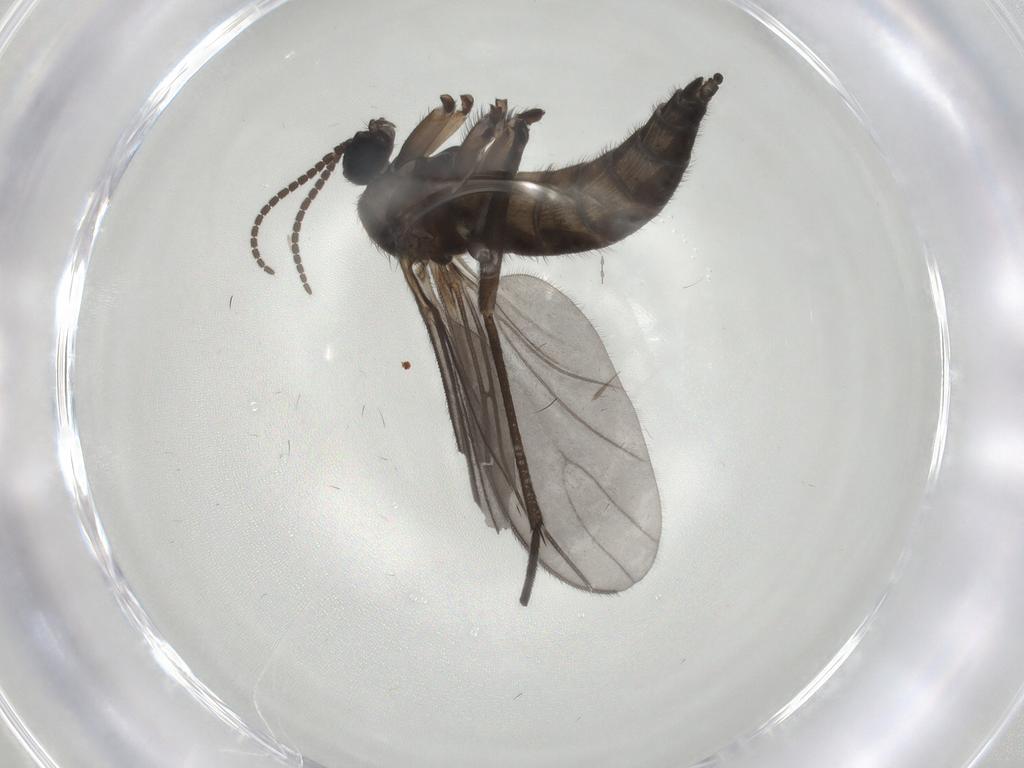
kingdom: Animalia
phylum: Arthropoda
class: Insecta
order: Diptera
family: Sciaridae
